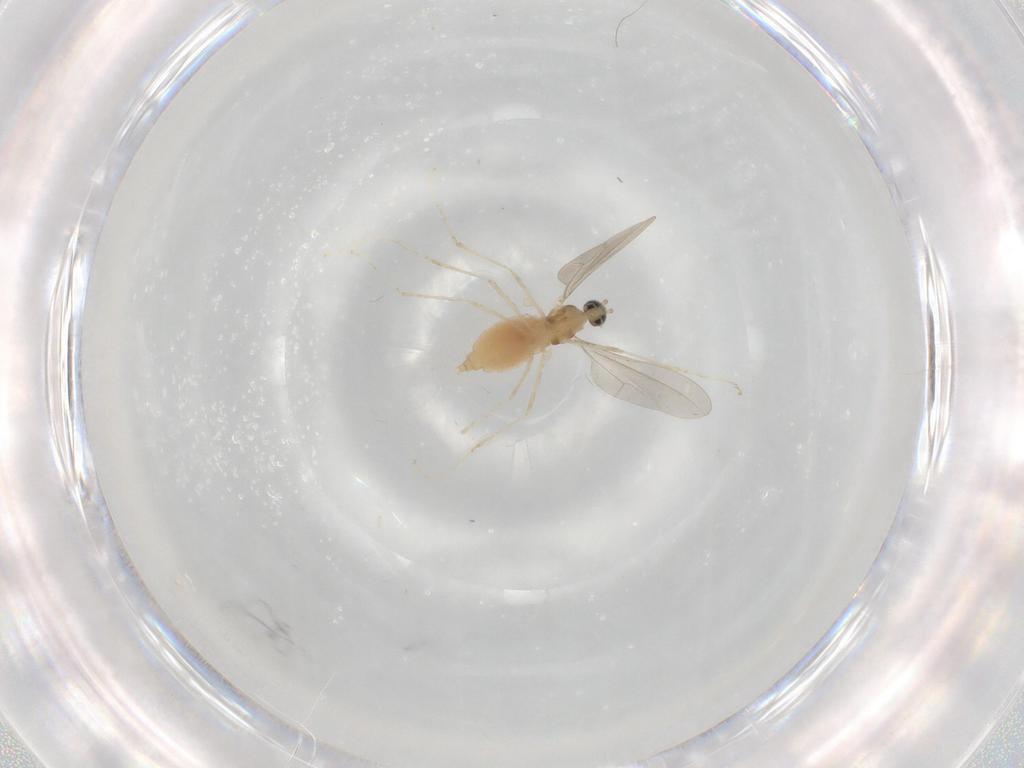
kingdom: Animalia
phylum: Arthropoda
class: Insecta
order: Diptera
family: Cecidomyiidae
